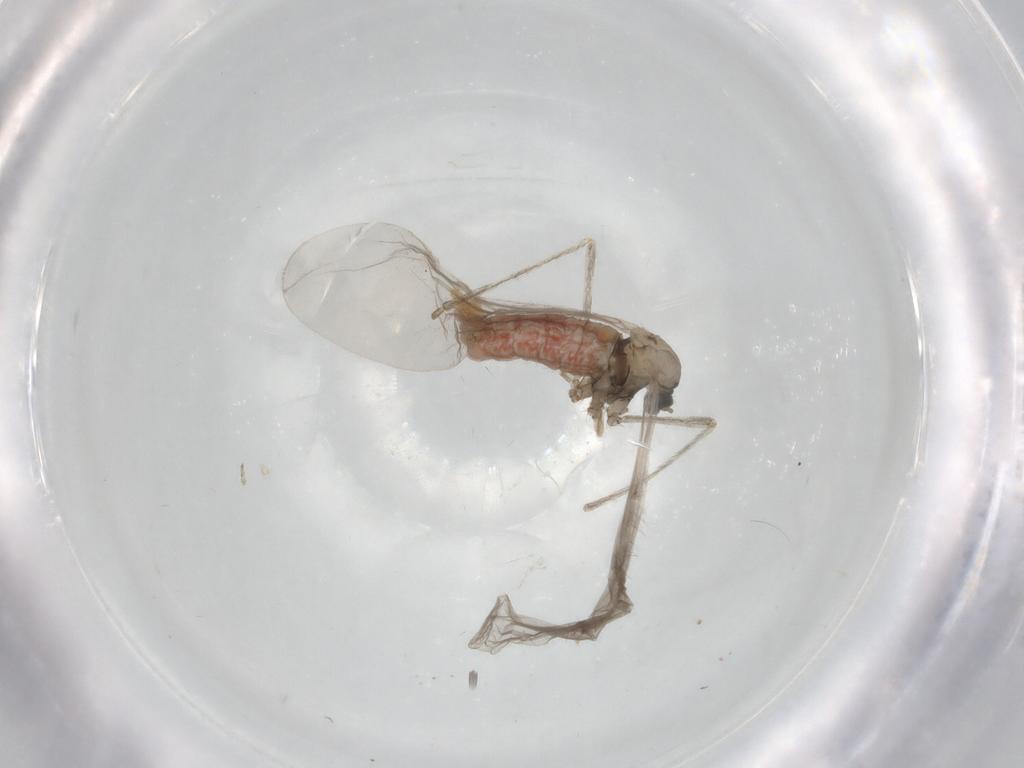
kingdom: Animalia
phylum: Arthropoda
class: Insecta
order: Diptera
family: Cecidomyiidae
